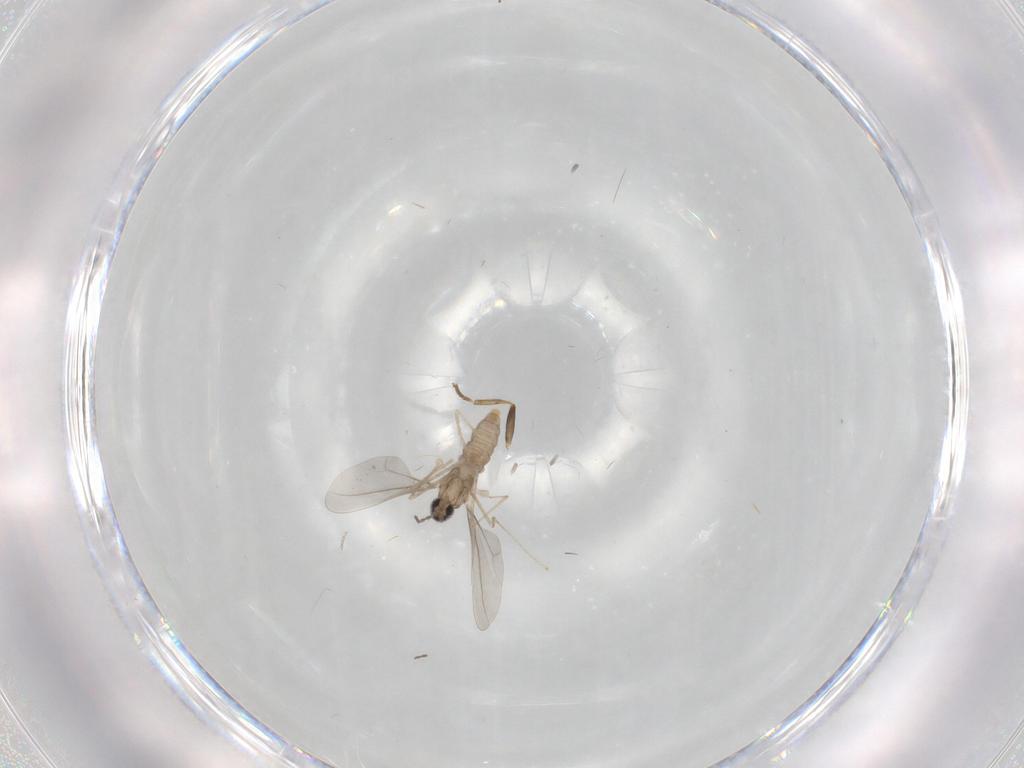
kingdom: Animalia
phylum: Arthropoda
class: Insecta
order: Diptera
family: Cecidomyiidae
